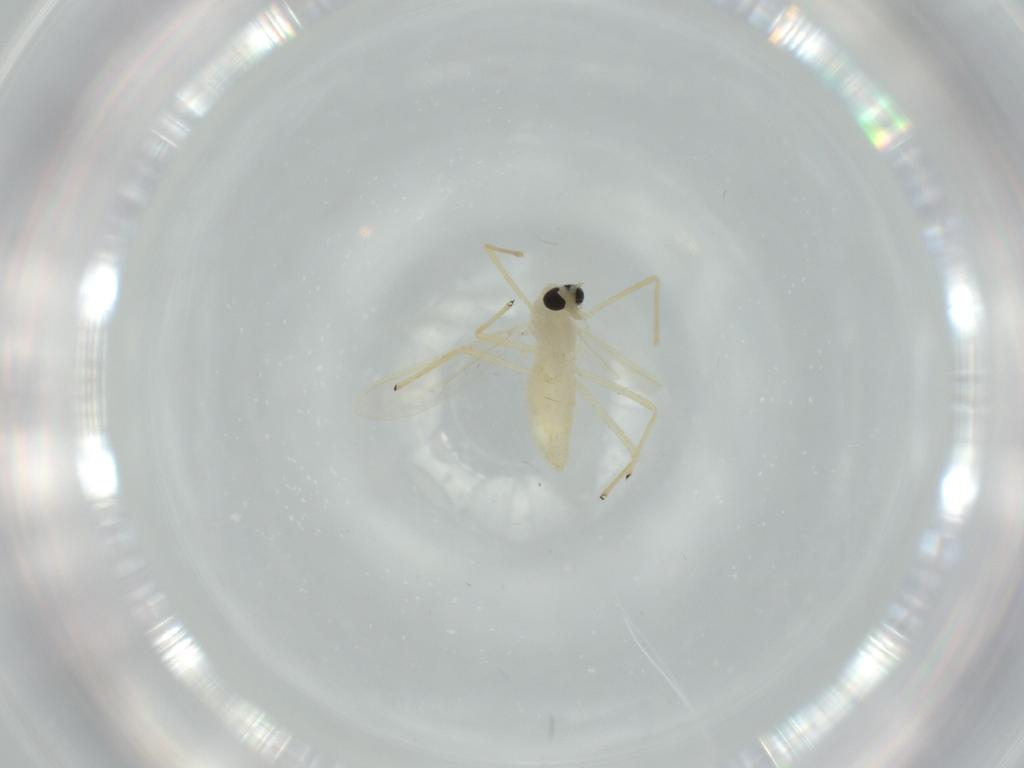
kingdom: Animalia
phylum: Arthropoda
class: Insecta
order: Diptera
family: Chironomidae
